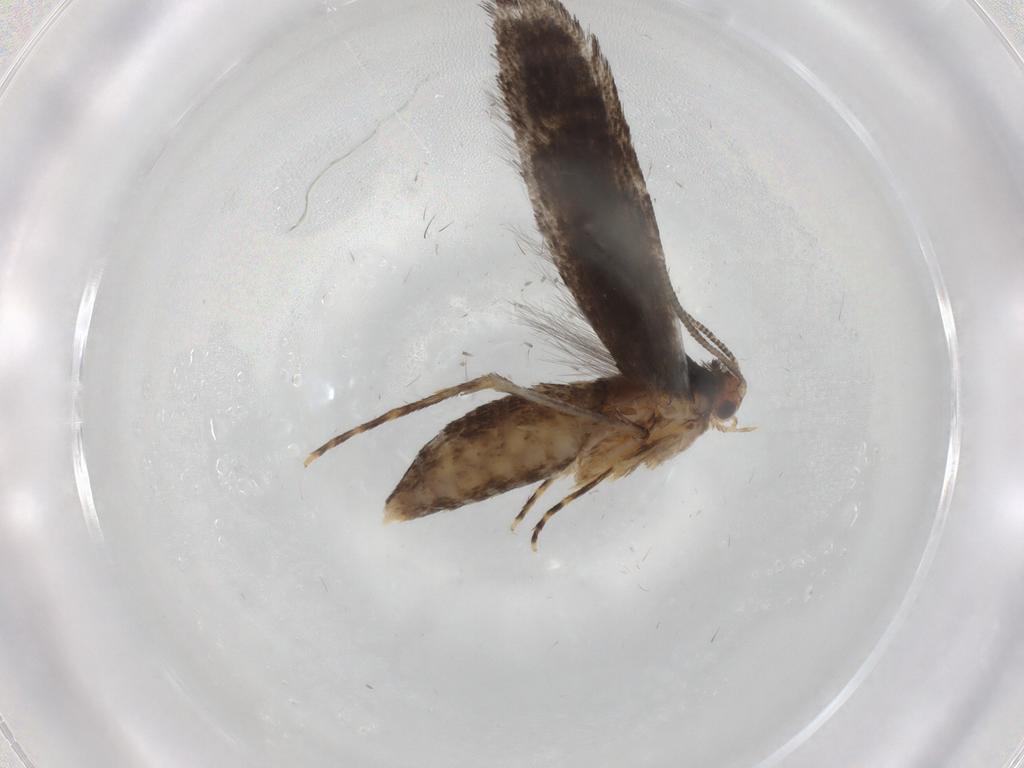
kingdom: Animalia
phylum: Arthropoda
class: Insecta
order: Lepidoptera
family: Tineidae
